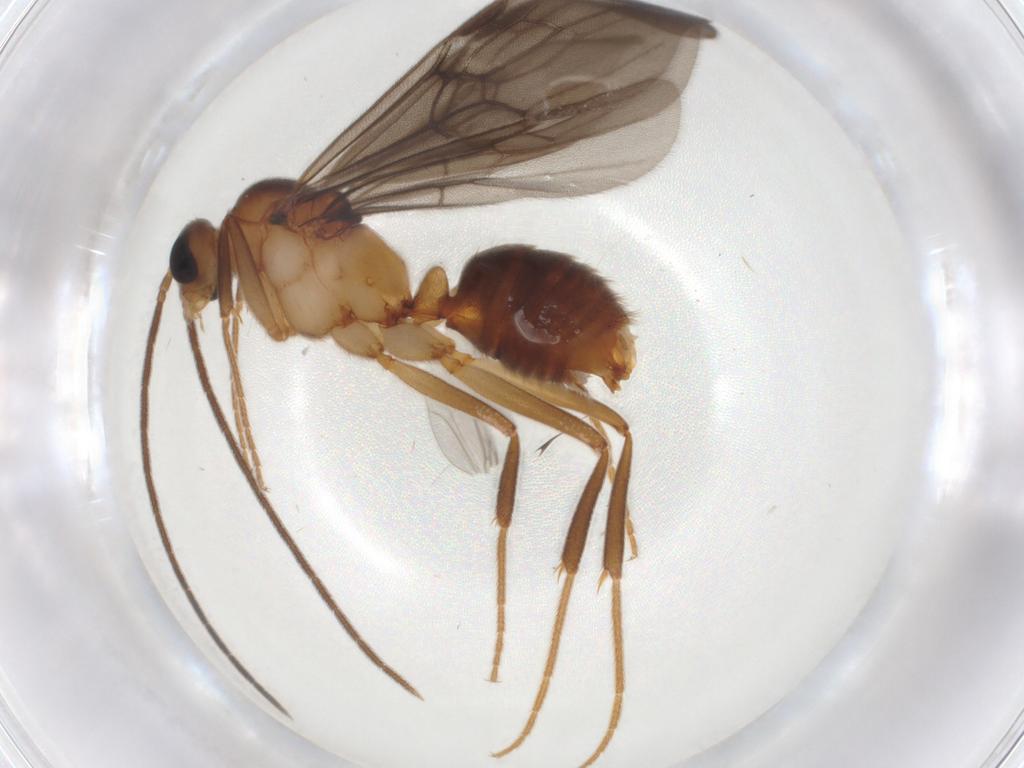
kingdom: Animalia
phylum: Arthropoda
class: Insecta
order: Hymenoptera
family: Formicidae
